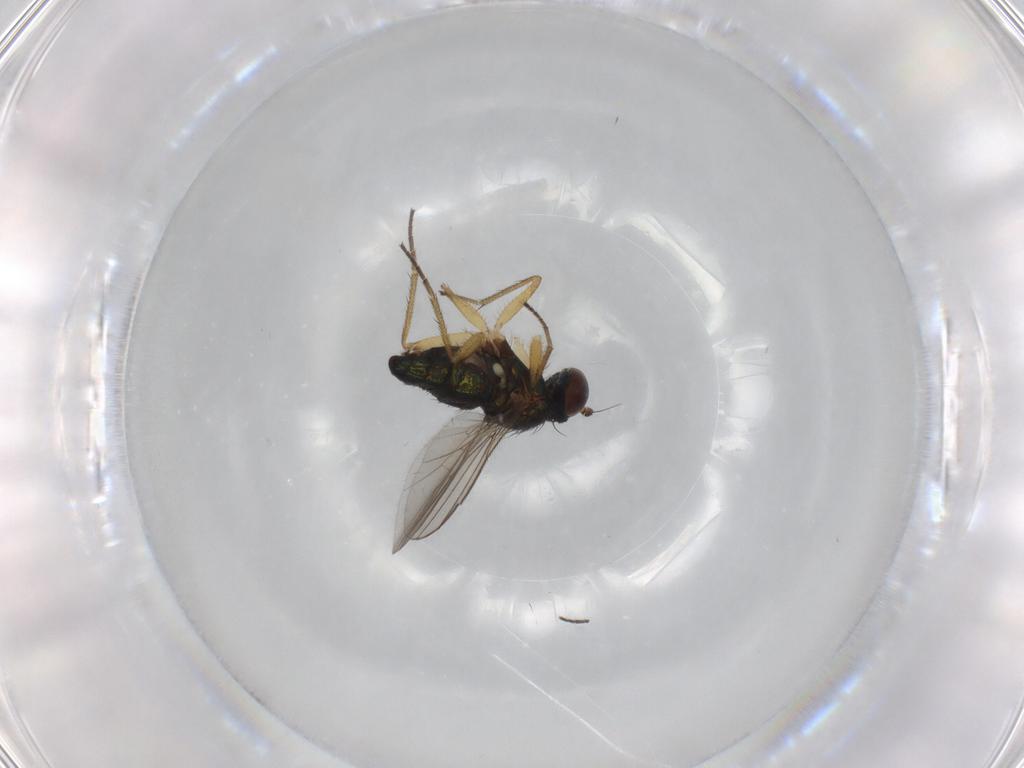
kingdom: Animalia
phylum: Arthropoda
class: Insecta
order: Diptera
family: Dolichopodidae
